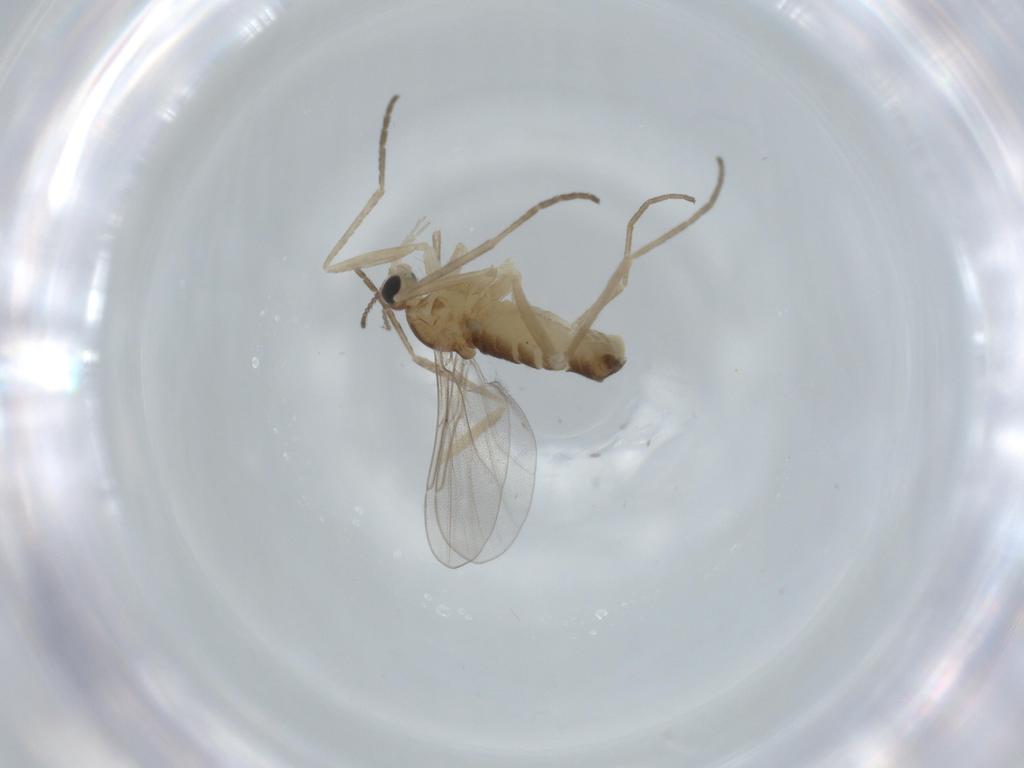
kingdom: Animalia
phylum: Arthropoda
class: Insecta
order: Diptera
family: Cecidomyiidae
